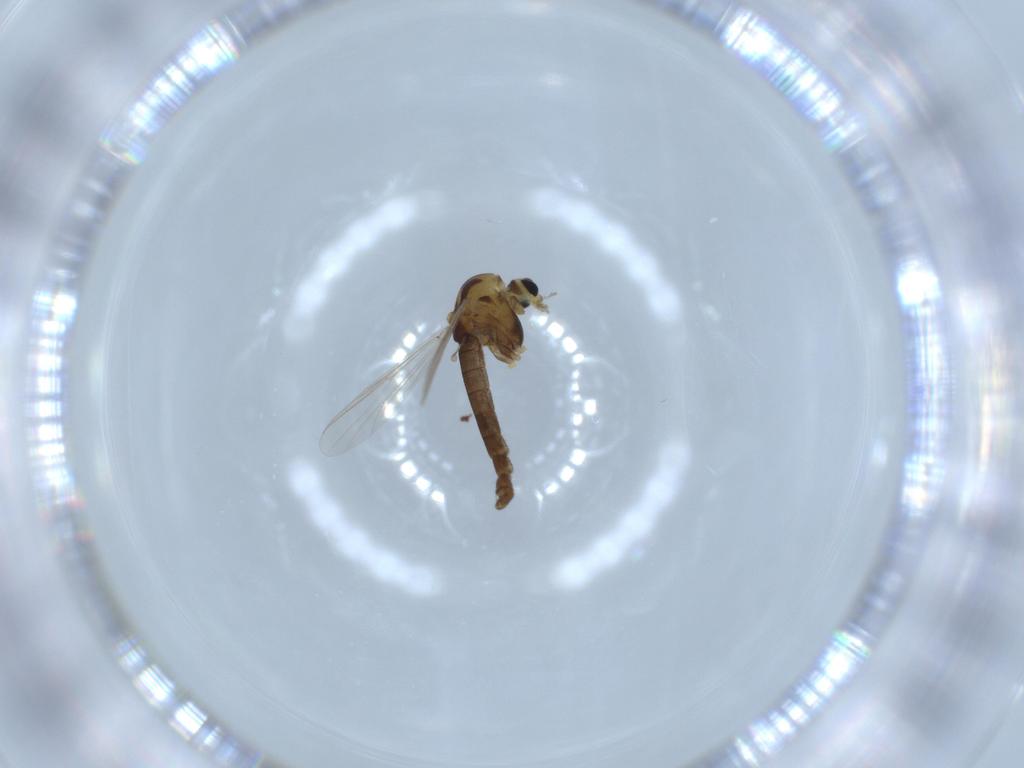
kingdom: Animalia
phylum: Arthropoda
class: Insecta
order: Diptera
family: Chironomidae
